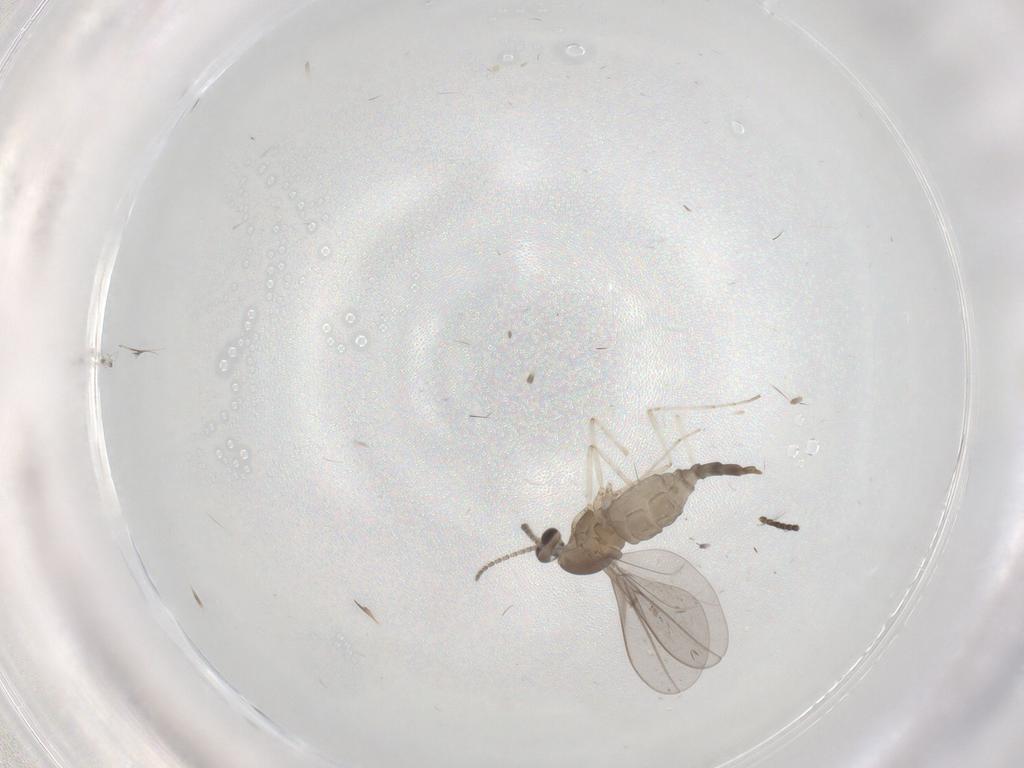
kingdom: Animalia
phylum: Arthropoda
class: Insecta
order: Diptera
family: Cecidomyiidae
